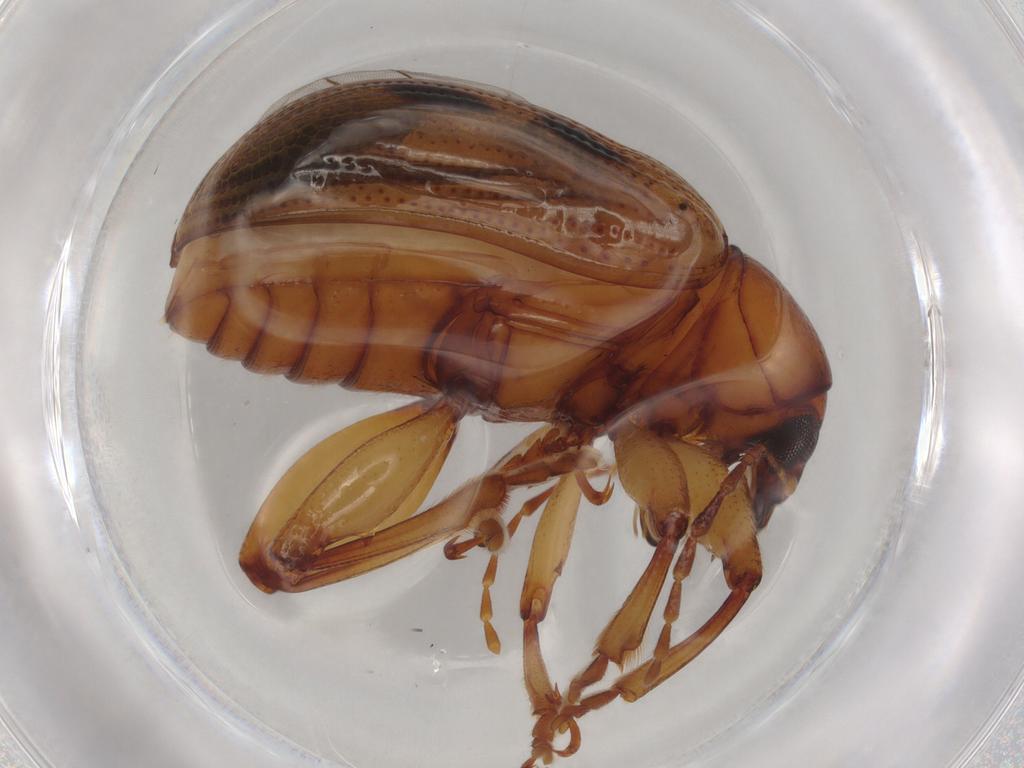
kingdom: Animalia
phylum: Arthropoda
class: Insecta
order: Coleoptera
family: Chrysomelidae
